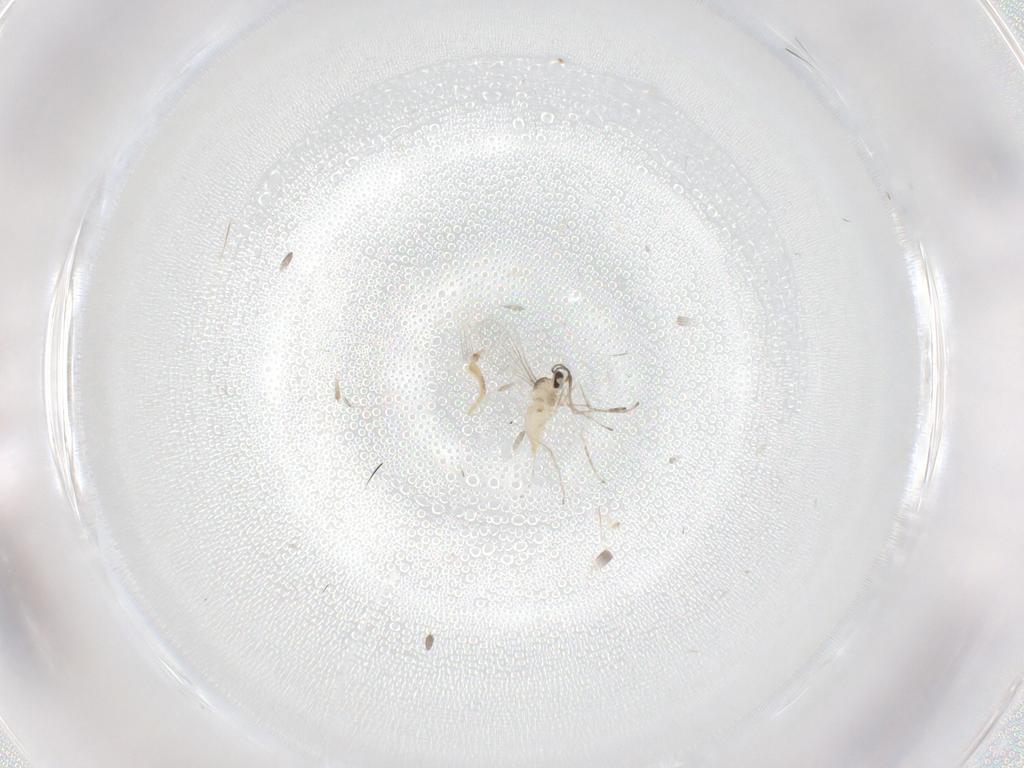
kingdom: Animalia
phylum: Arthropoda
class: Insecta
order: Diptera
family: Cecidomyiidae
